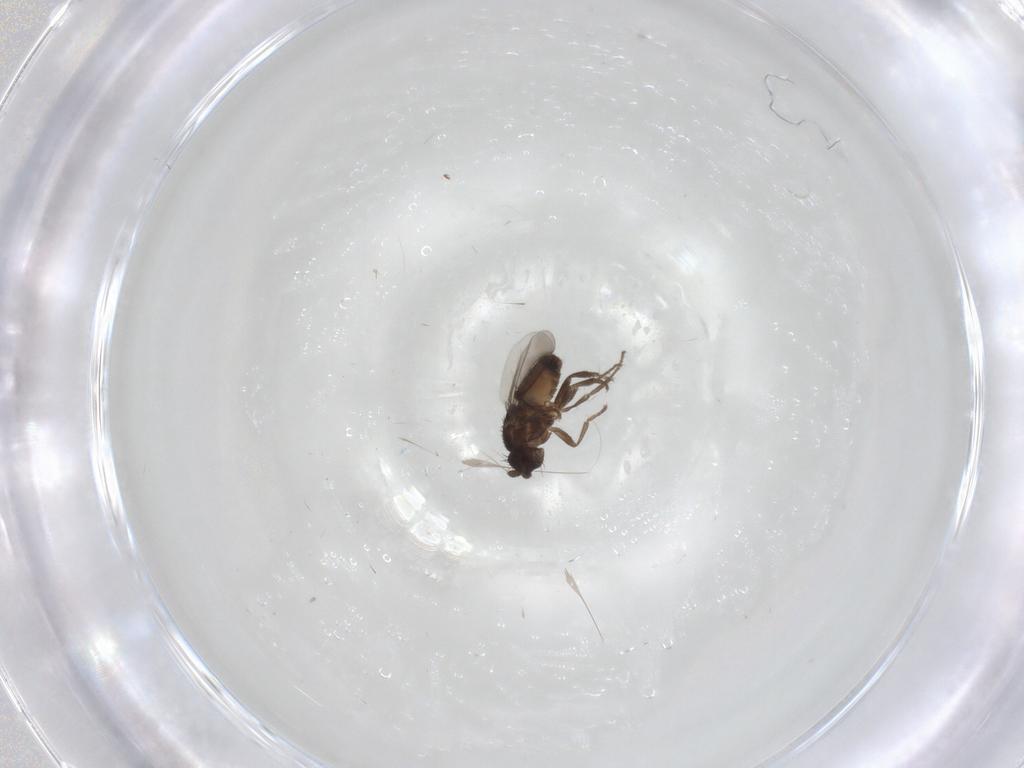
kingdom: Animalia
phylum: Arthropoda
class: Insecta
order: Diptera
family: Sphaeroceridae
